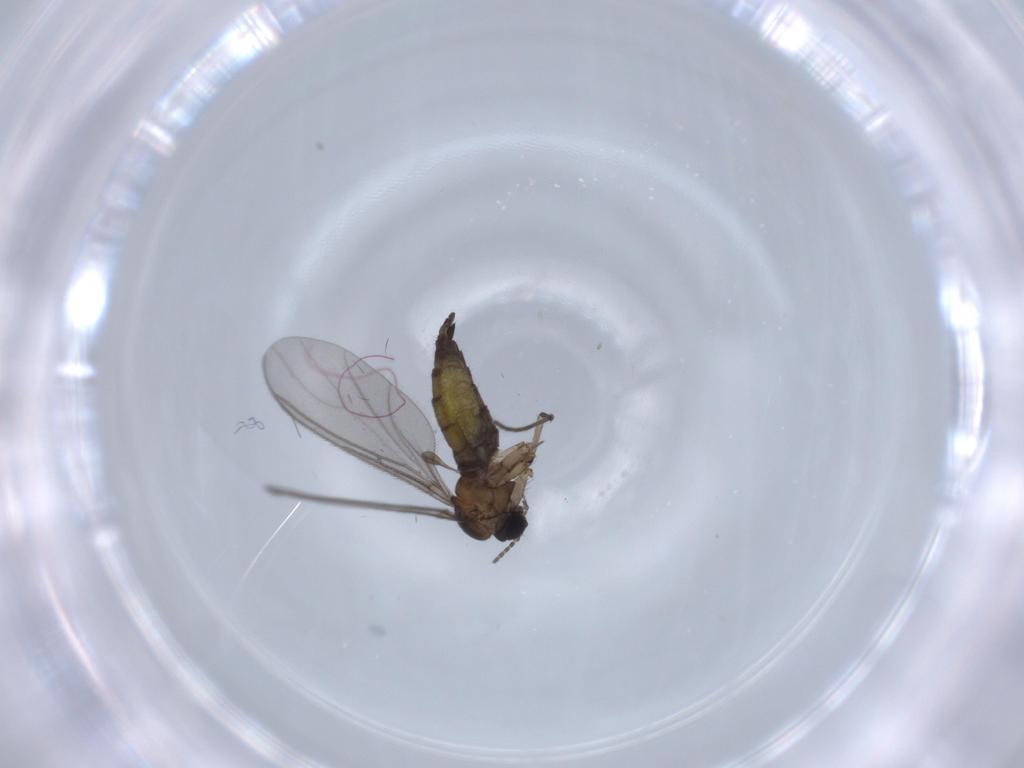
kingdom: Animalia
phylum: Arthropoda
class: Insecta
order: Diptera
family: Sciaridae
